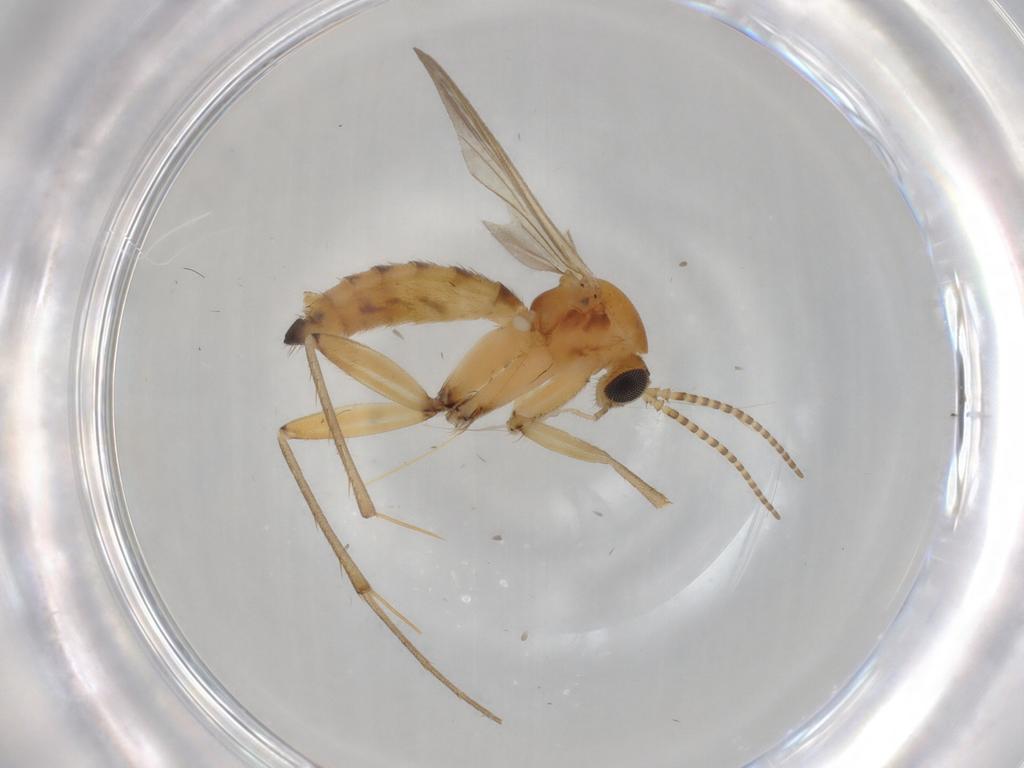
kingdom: Animalia
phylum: Arthropoda
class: Insecta
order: Diptera
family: Mycetophilidae
